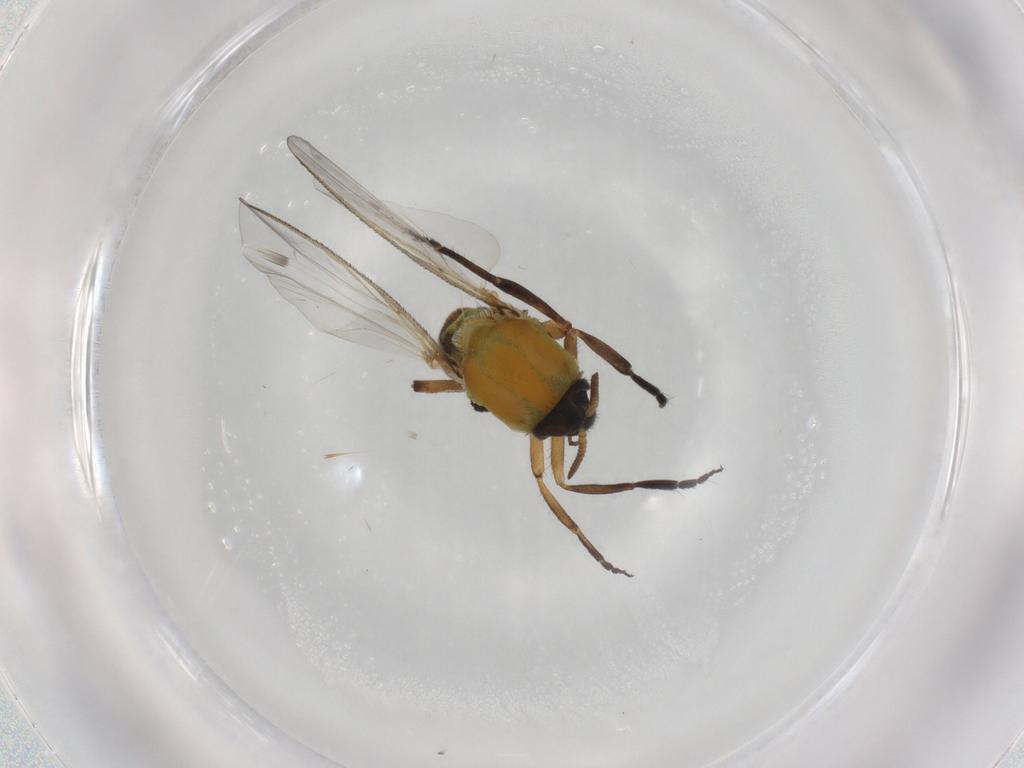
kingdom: Animalia
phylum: Arthropoda
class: Insecta
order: Diptera
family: Simuliidae
